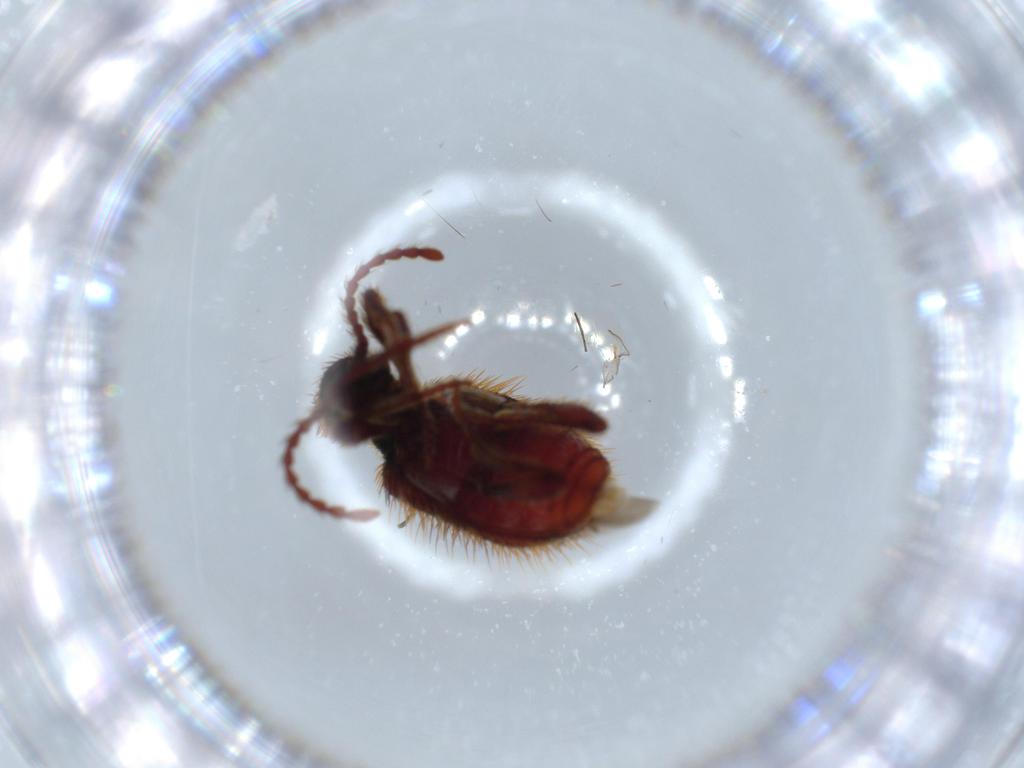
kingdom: Animalia
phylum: Arthropoda
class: Insecta
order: Coleoptera
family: Ptinidae
